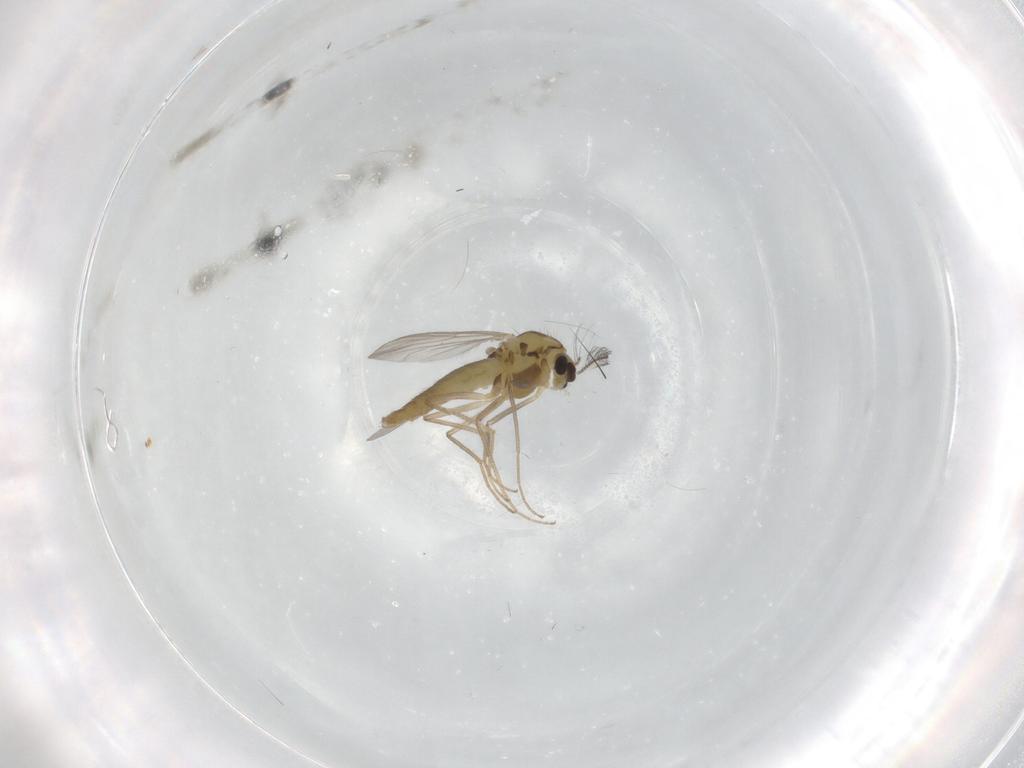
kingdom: Animalia
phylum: Arthropoda
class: Insecta
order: Diptera
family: Chironomidae
